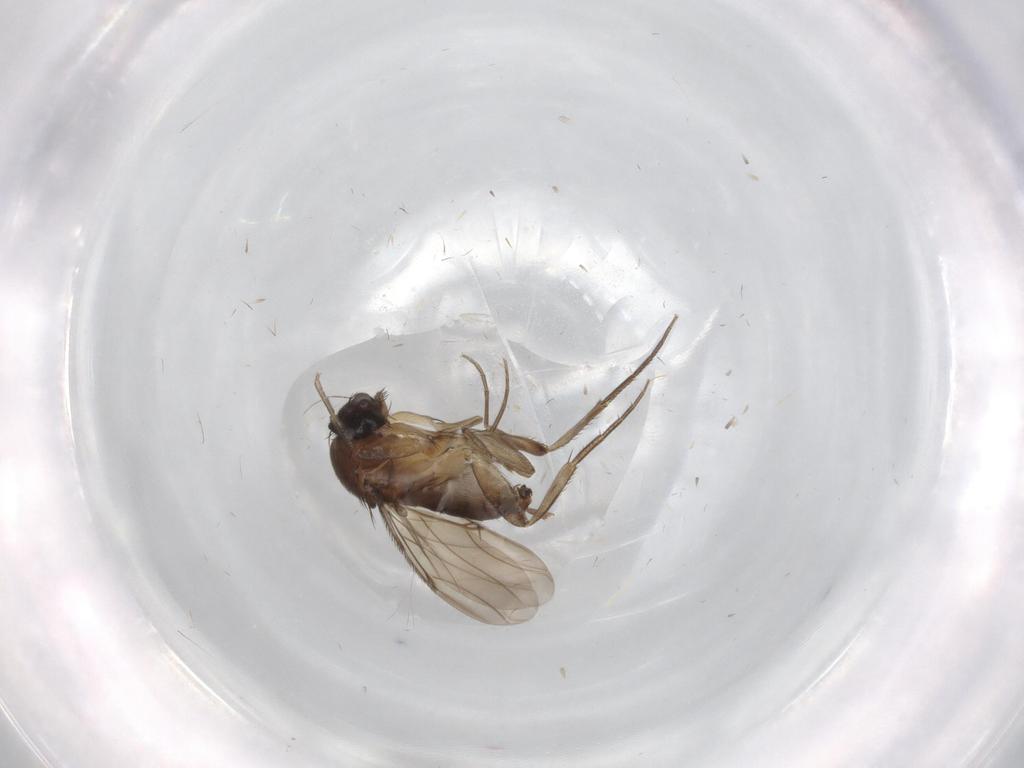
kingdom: Animalia
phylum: Arthropoda
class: Insecta
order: Diptera
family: Phoridae
